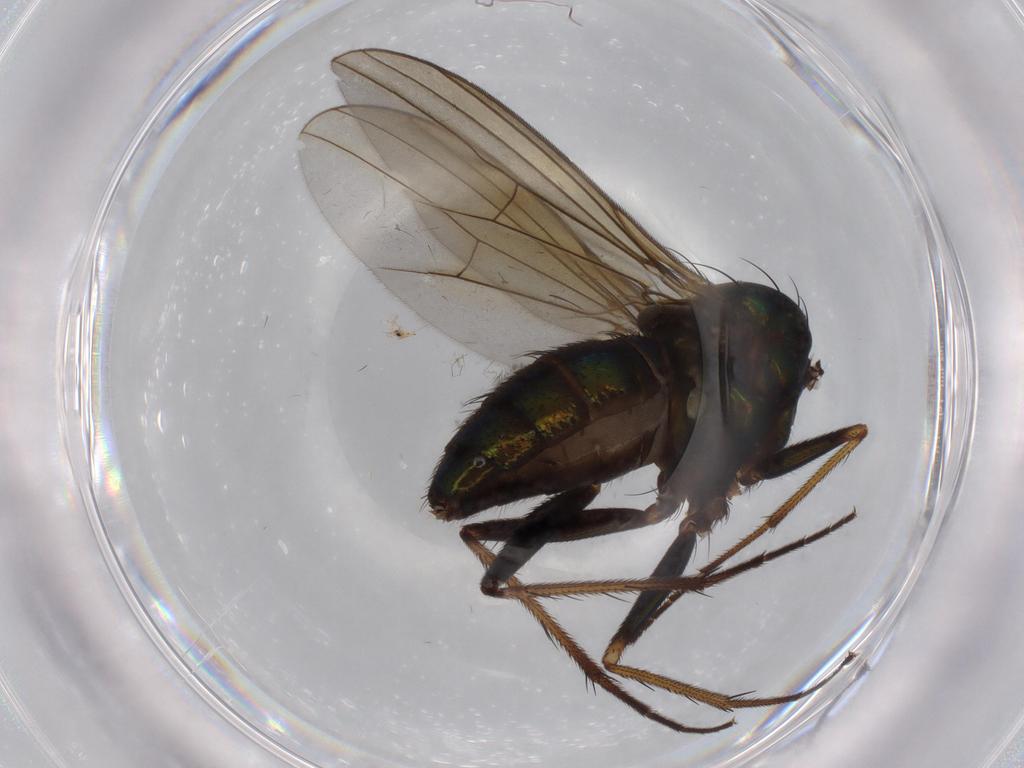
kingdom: Animalia
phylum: Arthropoda
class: Insecta
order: Diptera
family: Dolichopodidae
